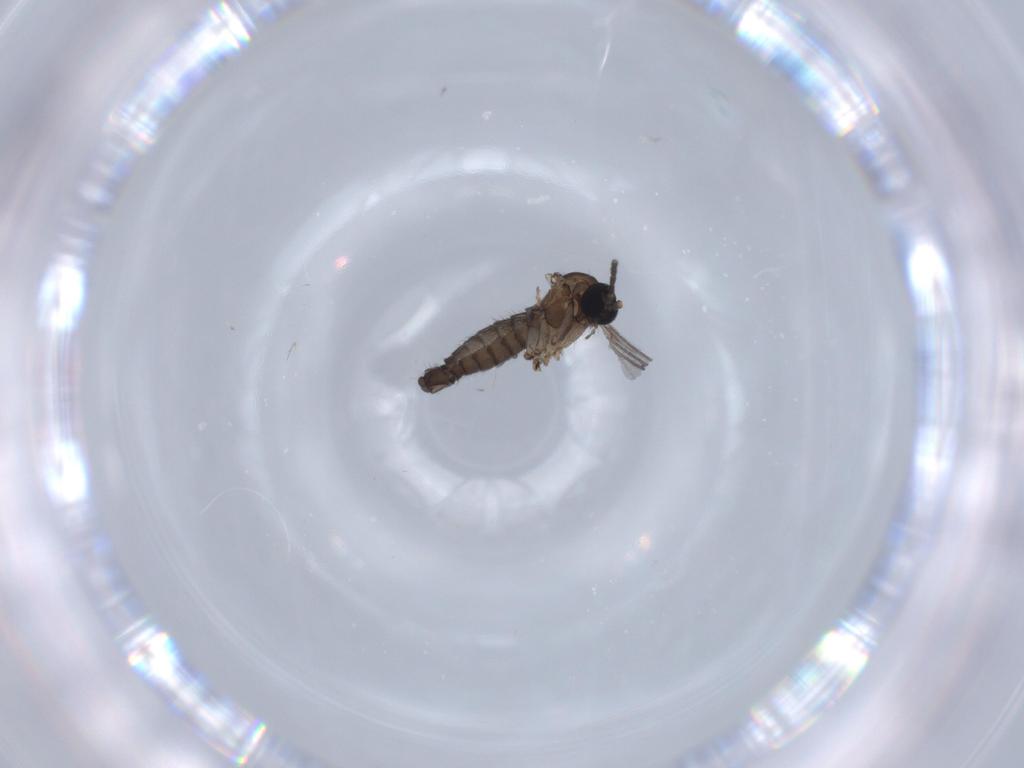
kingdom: Animalia
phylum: Arthropoda
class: Insecta
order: Diptera
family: Sciaridae
